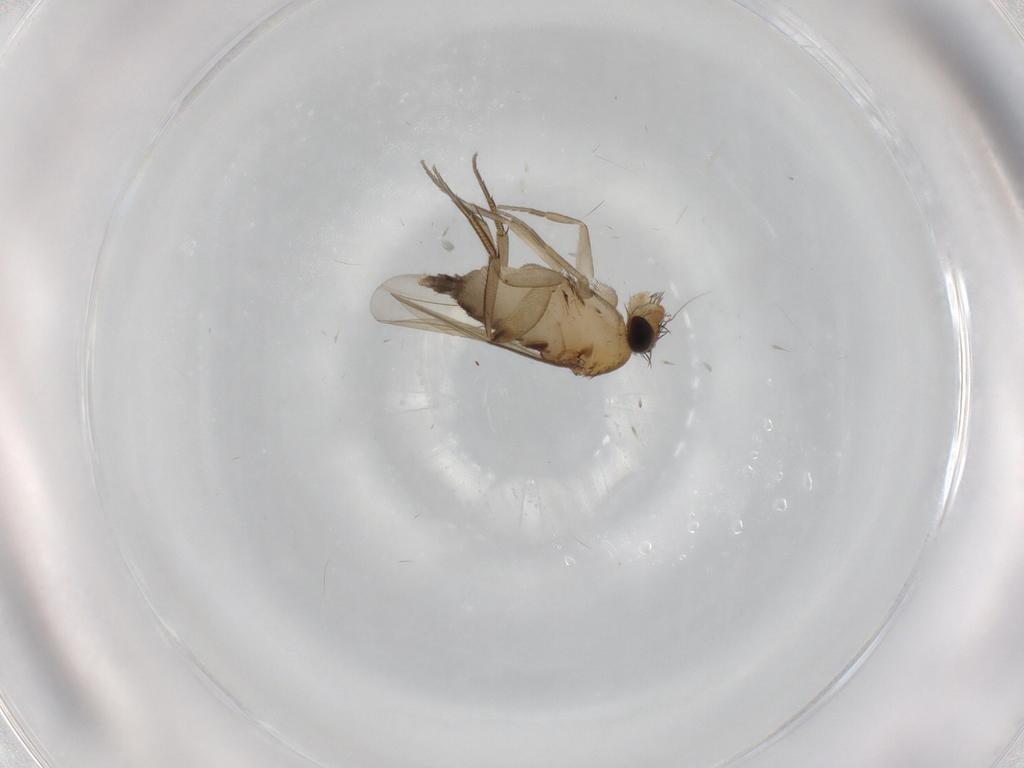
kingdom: Animalia
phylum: Arthropoda
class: Insecta
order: Diptera
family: Phoridae
